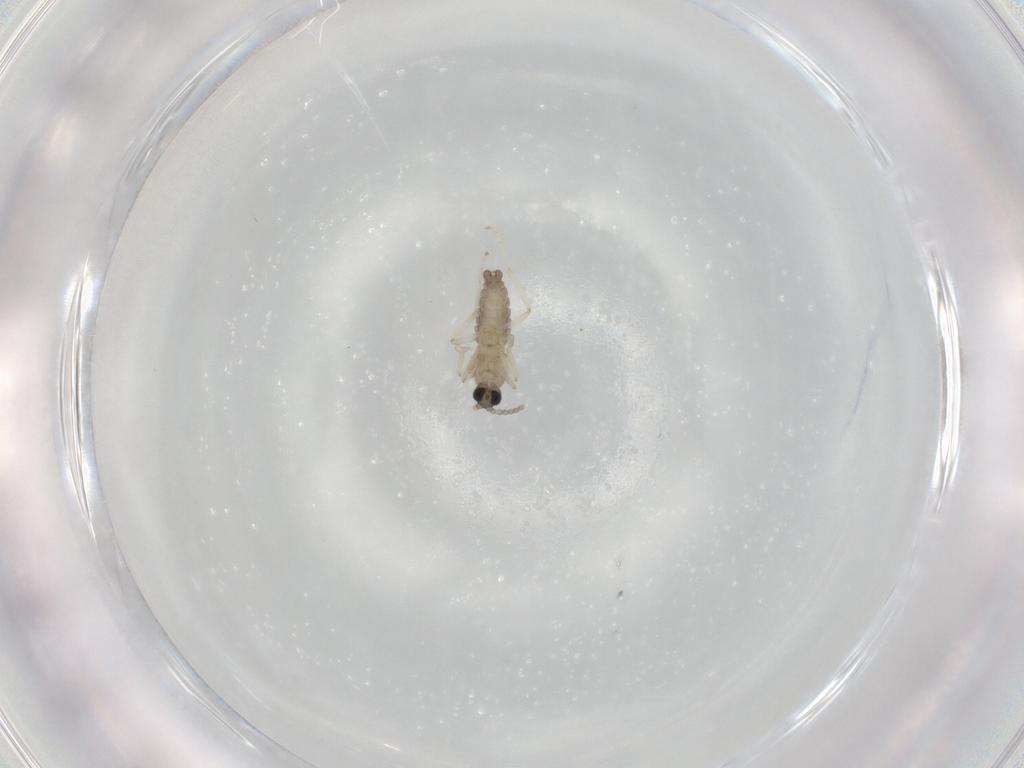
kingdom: Animalia
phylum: Arthropoda
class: Insecta
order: Diptera
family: Cecidomyiidae
